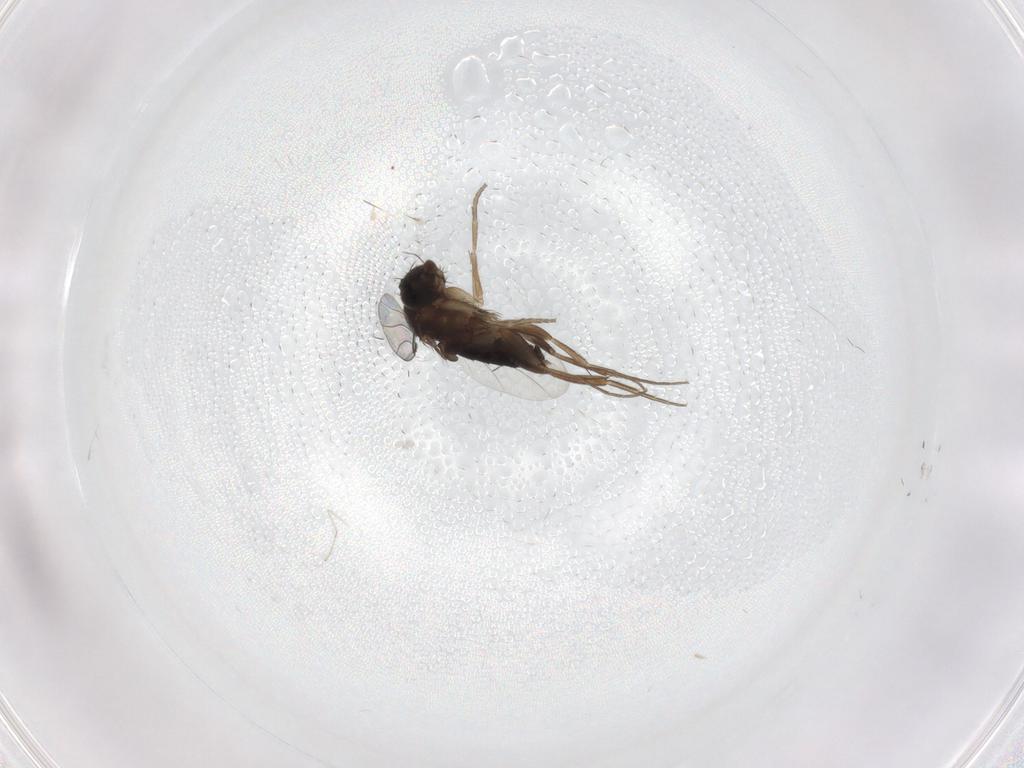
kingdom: Animalia
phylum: Arthropoda
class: Insecta
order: Diptera
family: Phoridae
